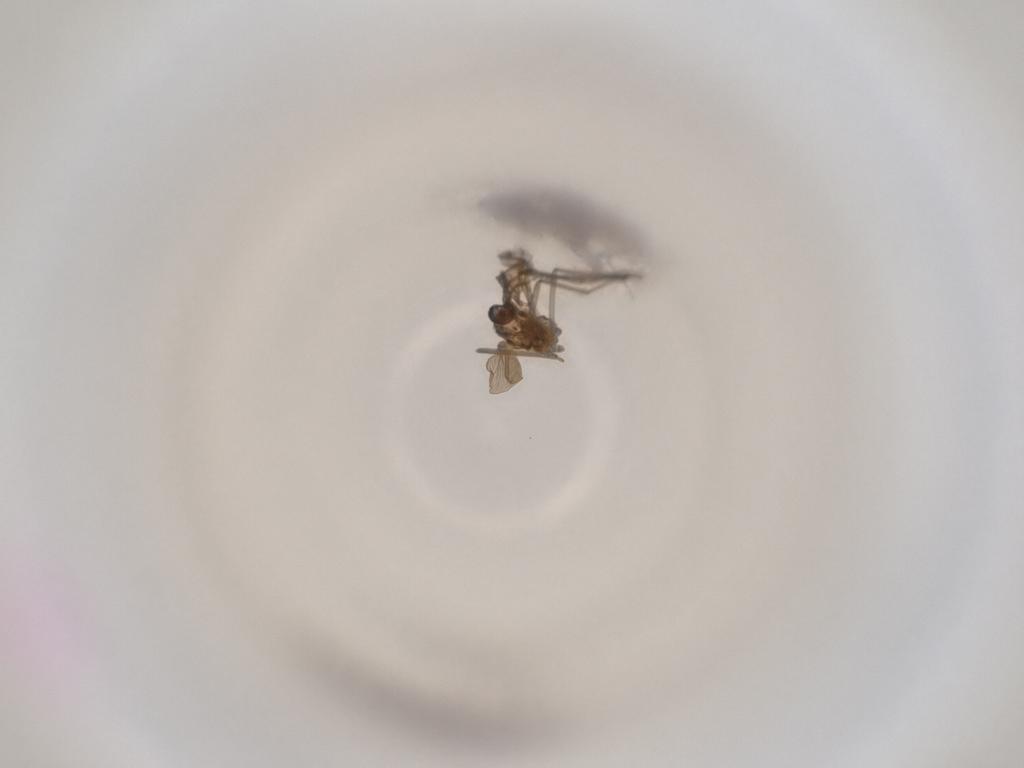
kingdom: Animalia
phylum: Arthropoda
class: Insecta
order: Diptera
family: Cecidomyiidae
